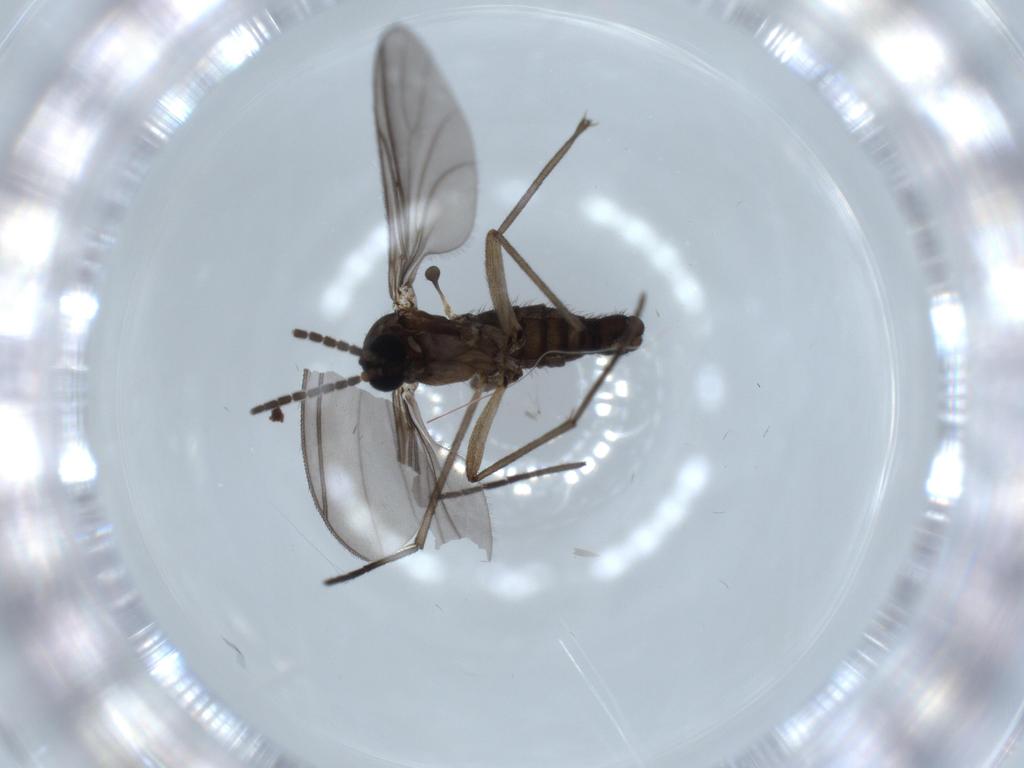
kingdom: Animalia
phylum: Arthropoda
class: Insecta
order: Diptera
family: Sciaridae
